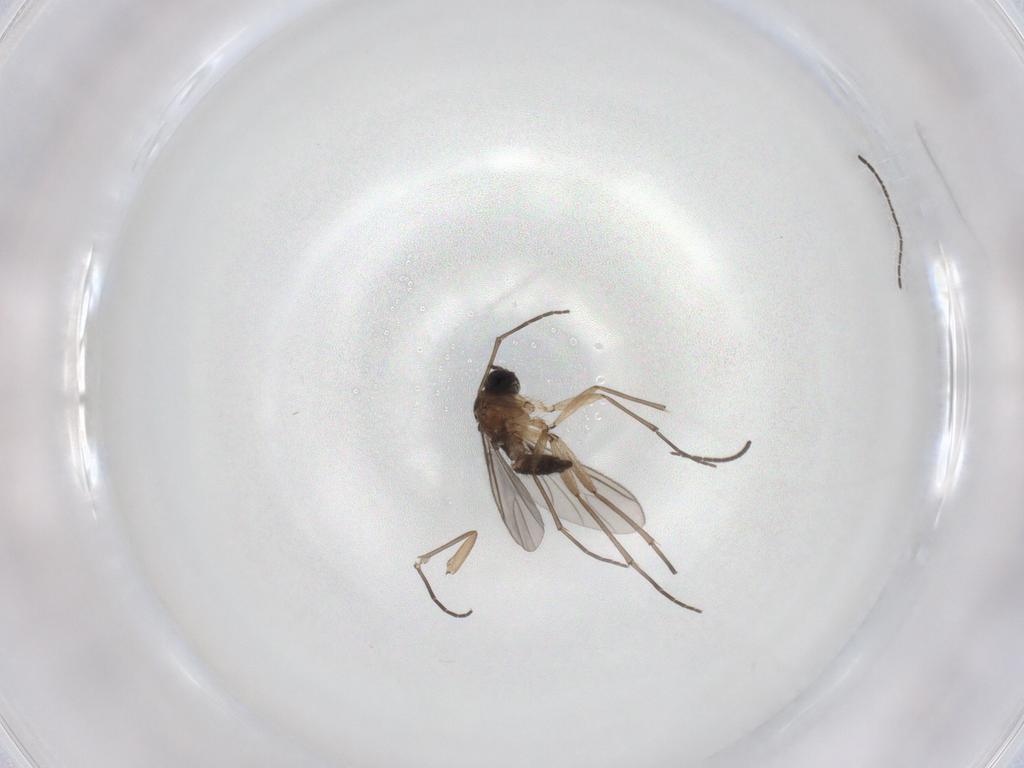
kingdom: Animalia
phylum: Arthropoda
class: Insecta
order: Diptera
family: Sciaridae
